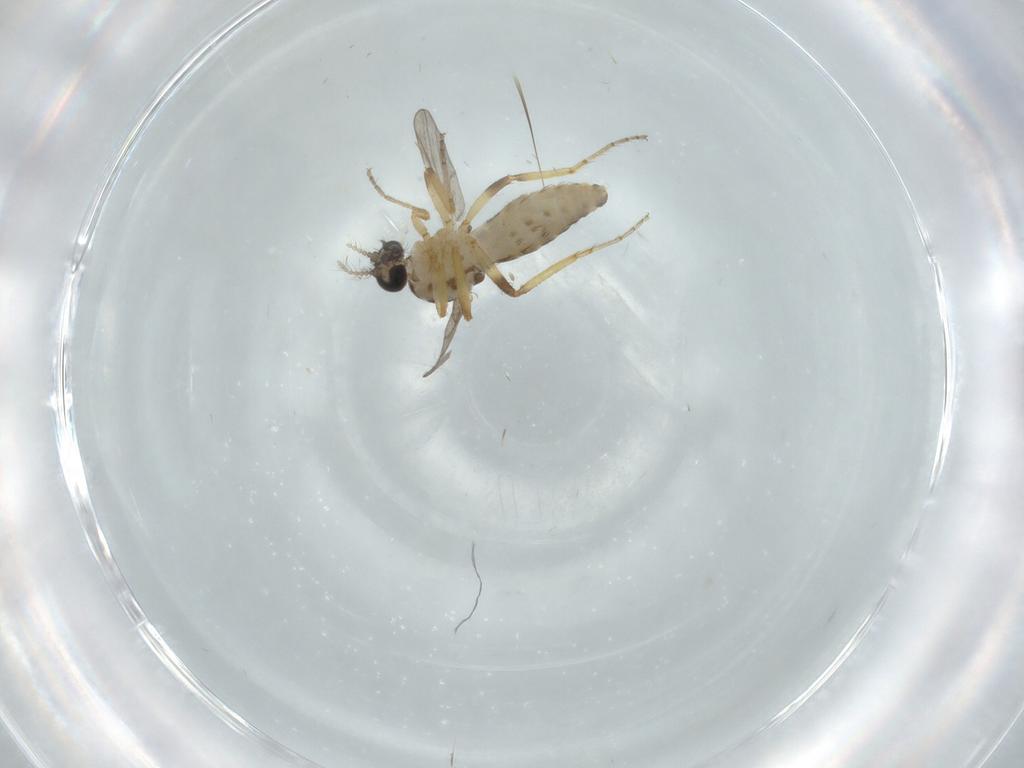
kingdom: Animalia
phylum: Arthropoda
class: Insecta
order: Diptera
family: Ceratopogonidae
